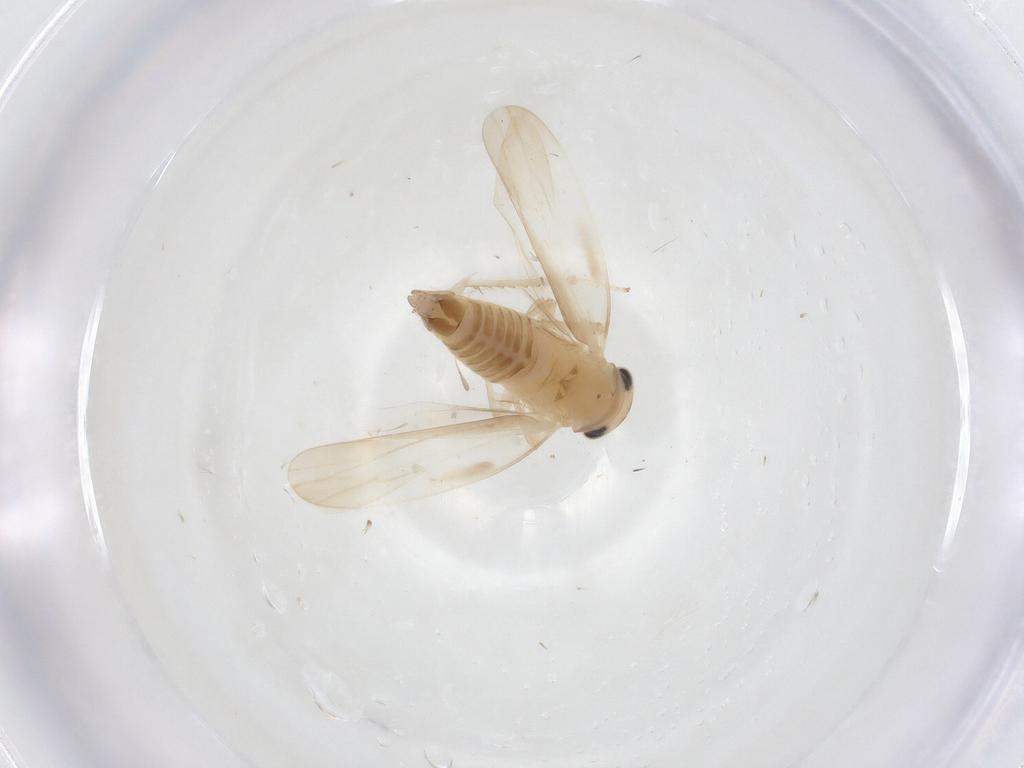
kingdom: Animalia
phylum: Arthropoda
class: Insecta
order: Hemiptera
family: Cicadellidae
